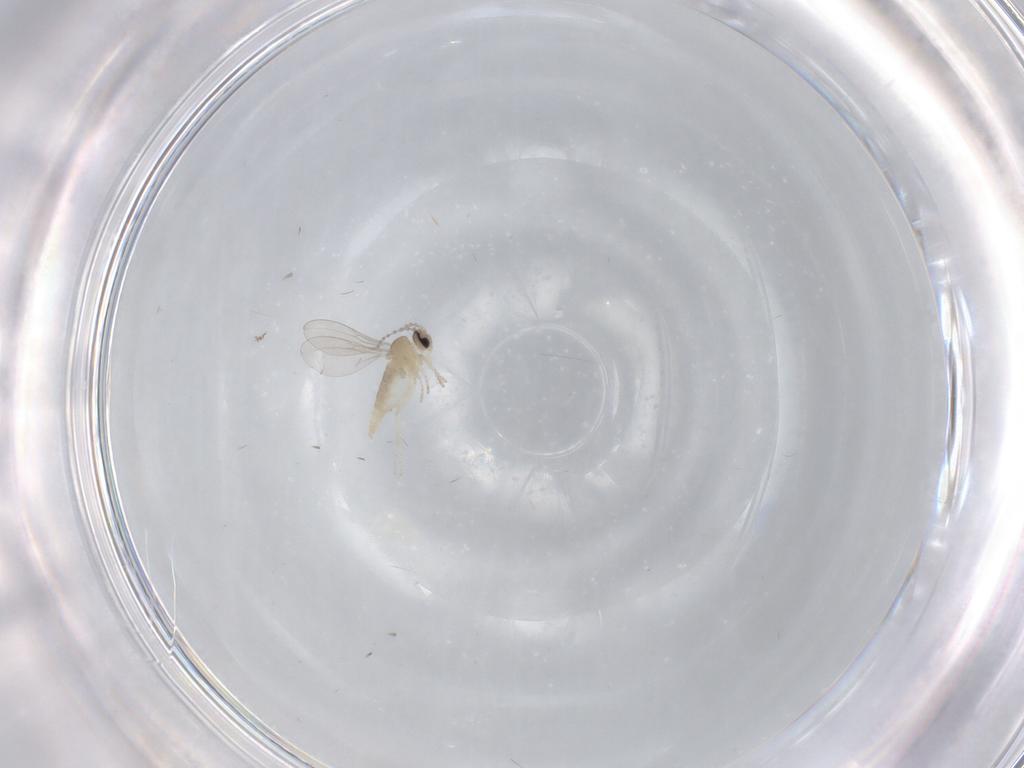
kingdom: Animalia
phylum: Arthropoda
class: Insecta
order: Diptera
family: Cecidomyiidae
